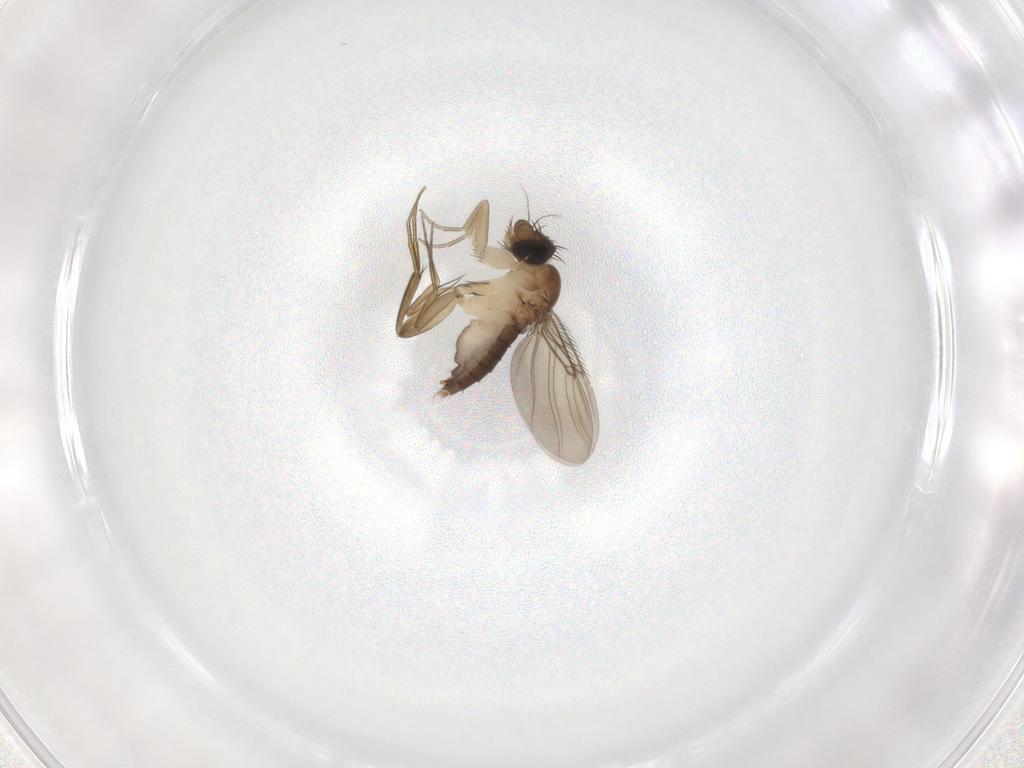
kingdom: Animalia
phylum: Arthropoda
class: Insecta
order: Diptera
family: Phoridae
